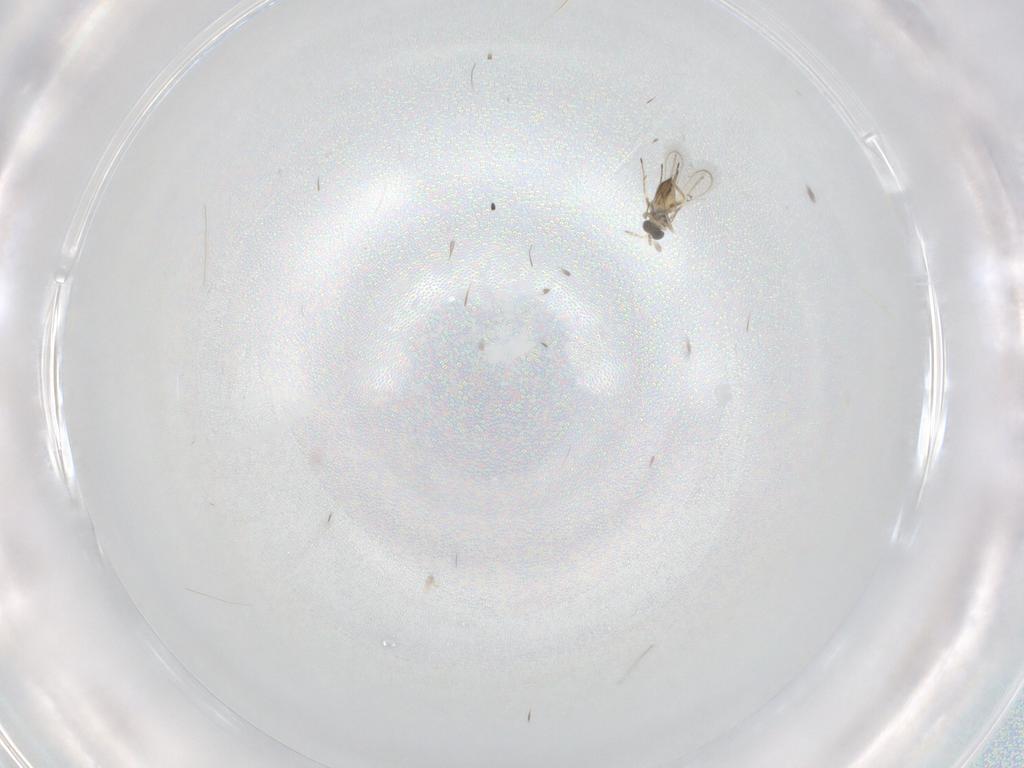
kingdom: Animalia
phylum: Arthropoda
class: Insecta
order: Hymenoptera
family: Trichogrammatidae
